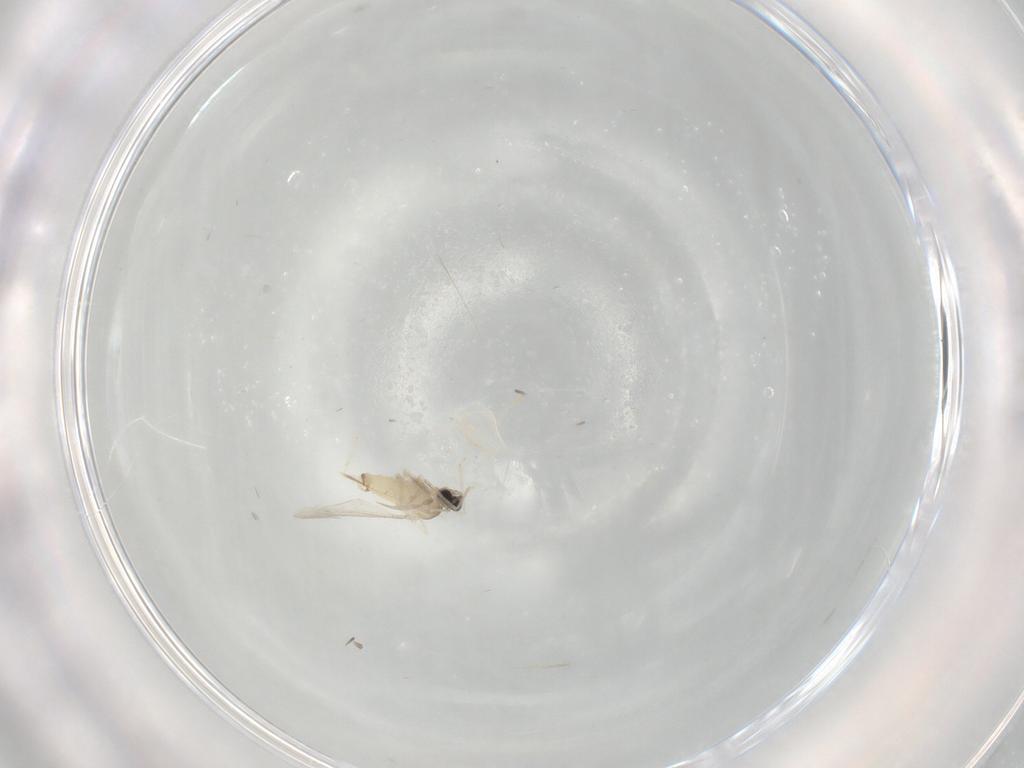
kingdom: Animalia
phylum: Arthropoda
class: Insecta
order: Diptera
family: Cecidomyiidae
